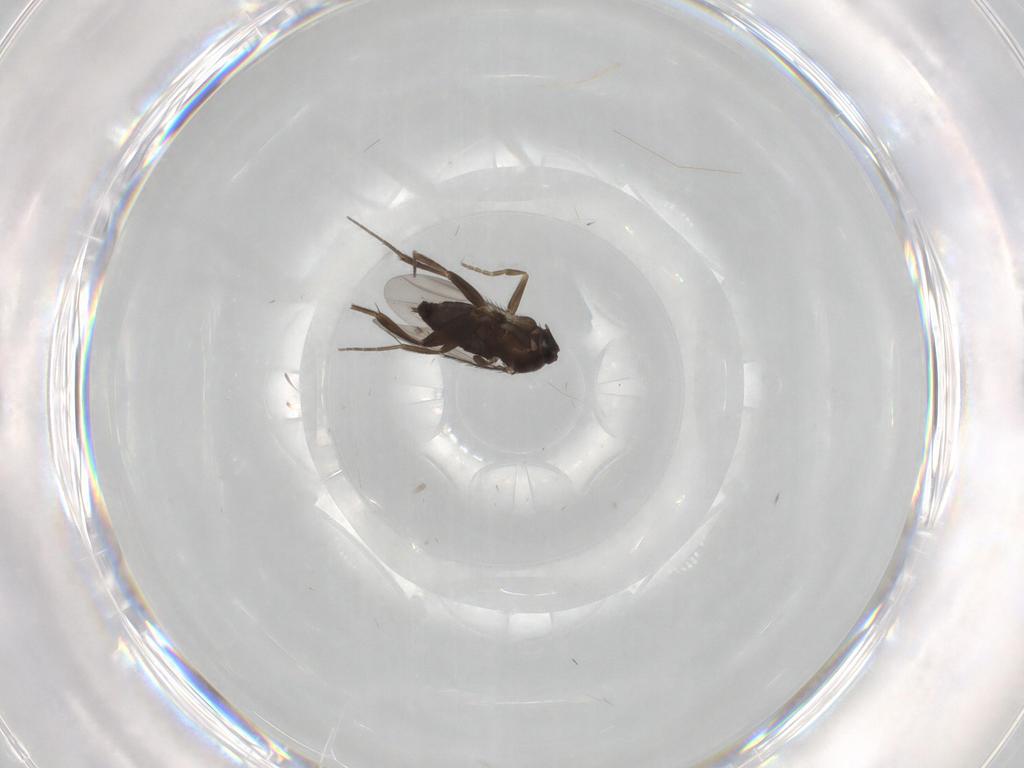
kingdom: Animalia
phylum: Arthropoda
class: Insecta
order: Diptera
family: Phoridae
